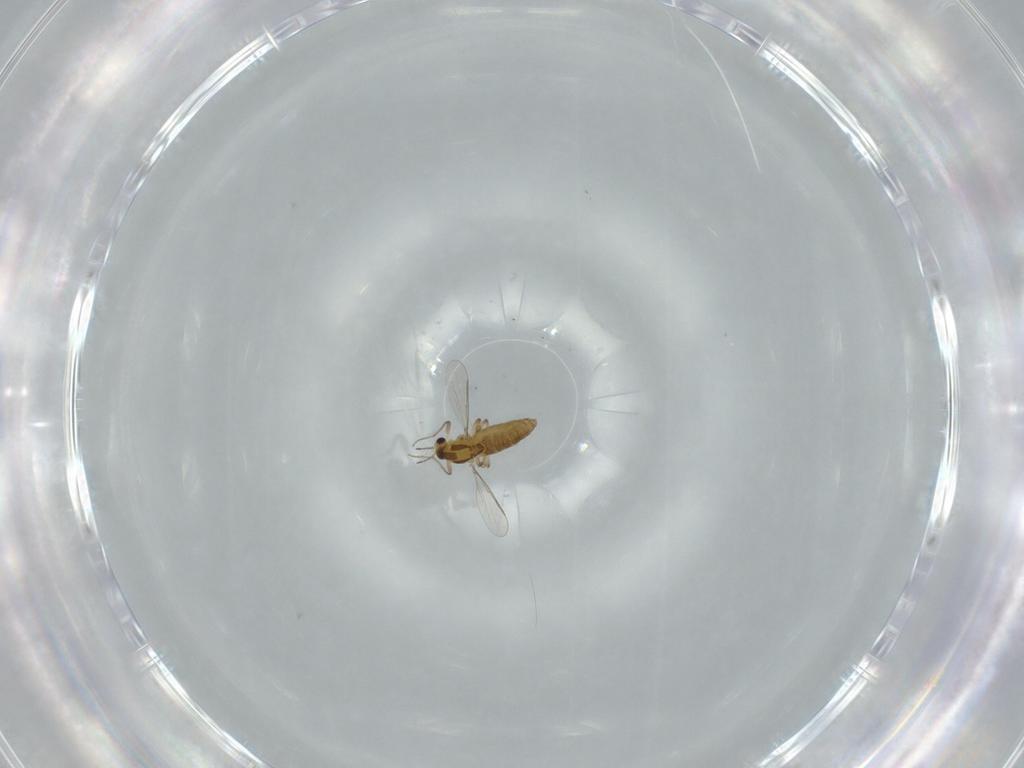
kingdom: Animalia
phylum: Arthropoda
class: Insecta
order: Diptera
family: Chironomidae
